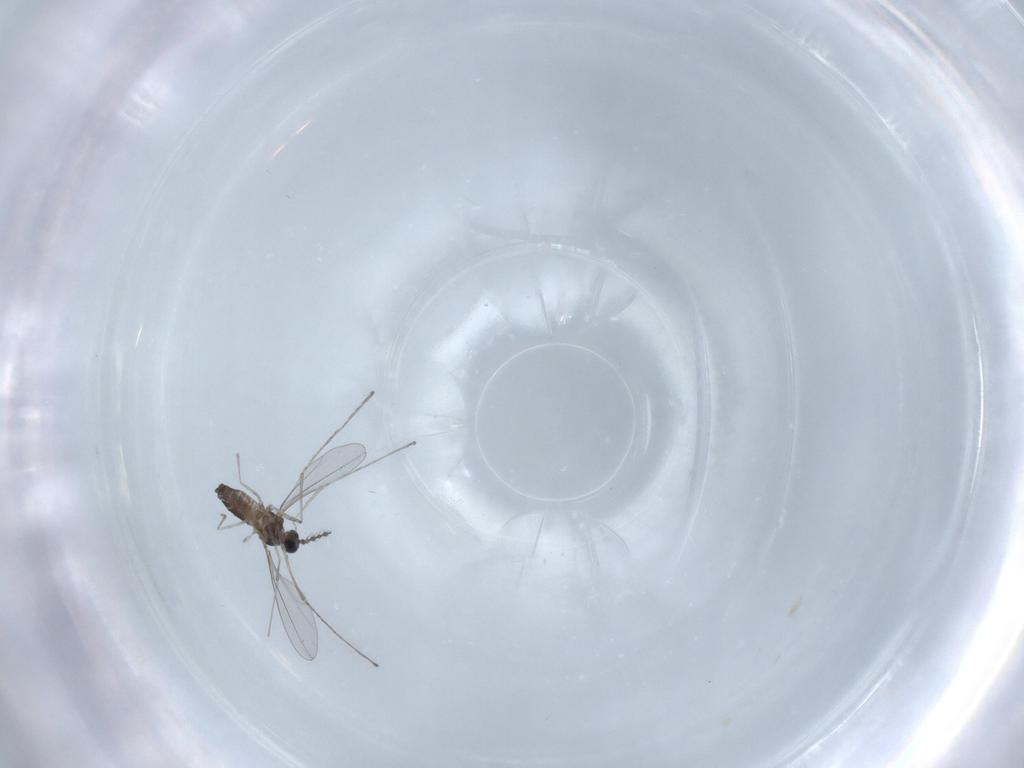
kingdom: Animalia
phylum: Arthropoda
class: Insecta
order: Diptera
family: Cecidomyiidae
